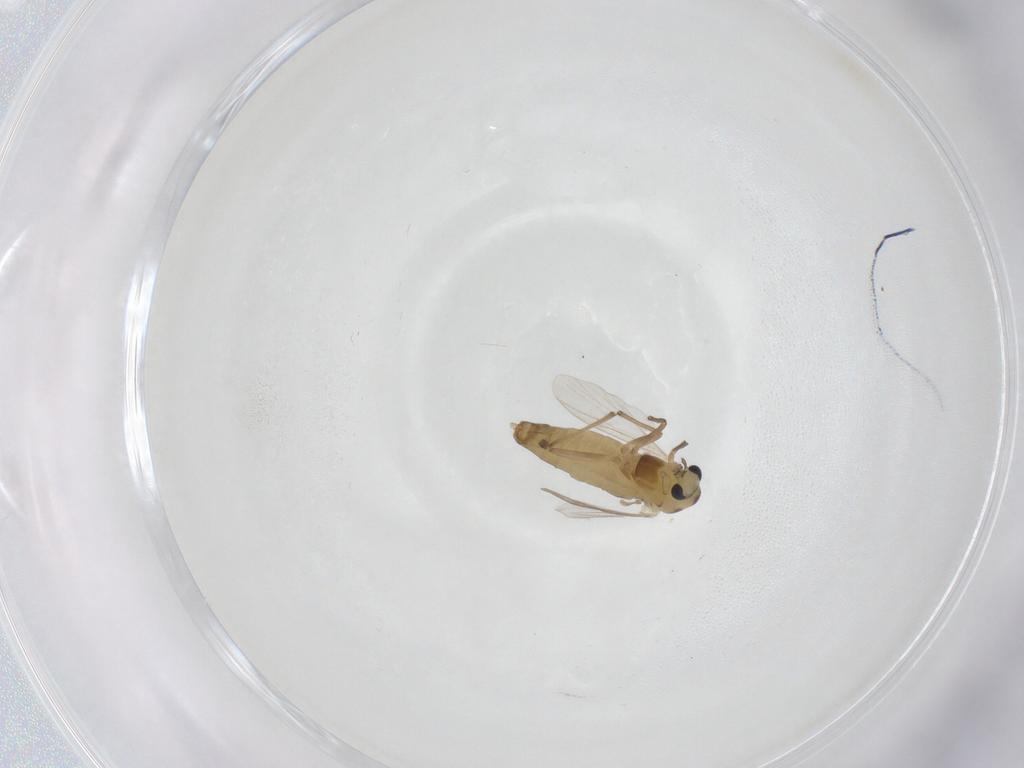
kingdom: Animalia
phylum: Arthropoda
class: Insecta
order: Diptera
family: Chironomidae
